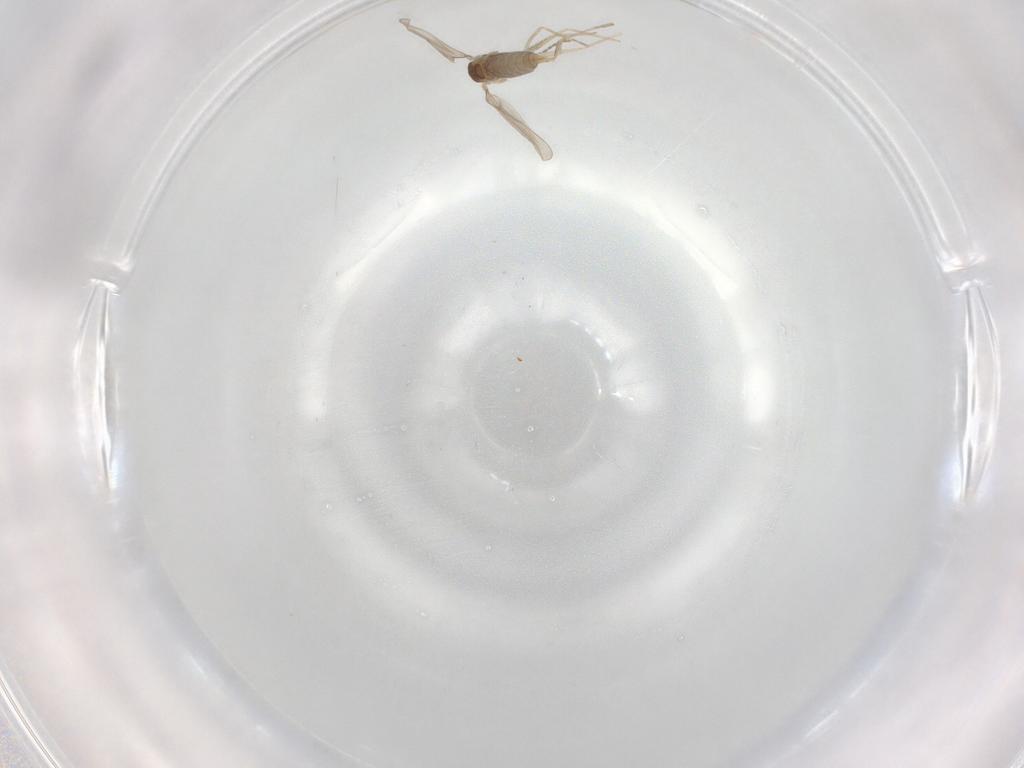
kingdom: Animalia
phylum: Arthropoda
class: Insecta
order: Diptera
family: Cecidomyiidae
